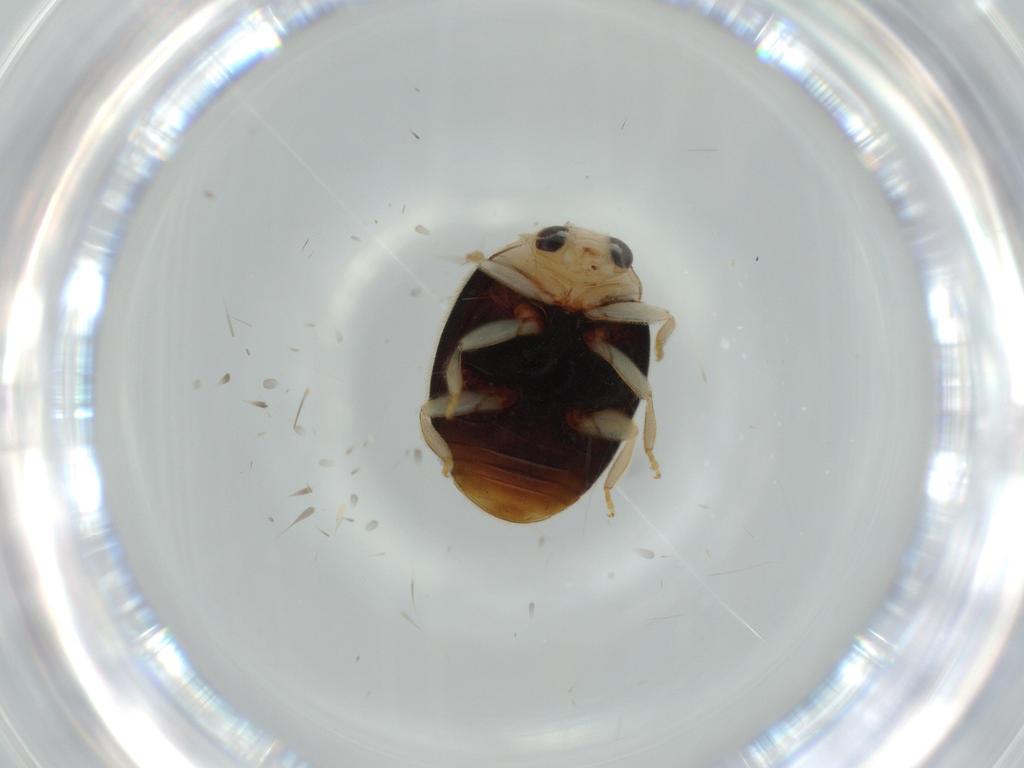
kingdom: Animalia
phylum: Arthropoda
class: Insecta
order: Coleoptera
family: Coccinellidae
